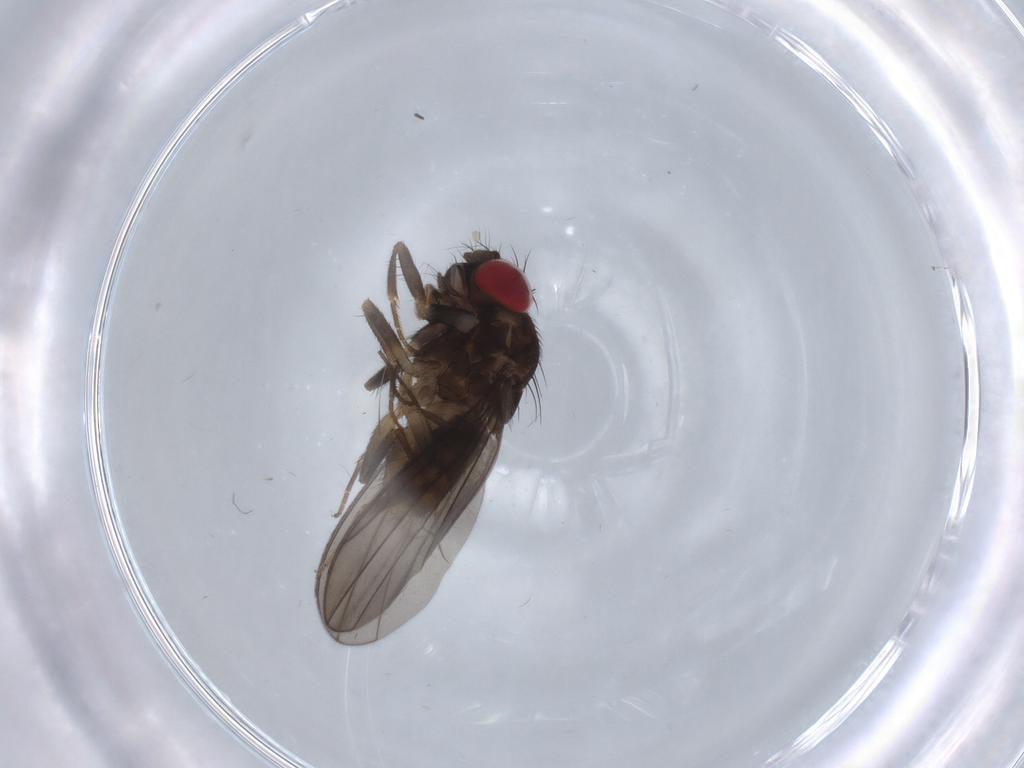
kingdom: Animalia
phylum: Arthropoda
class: Insecta
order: Diptera
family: Drosophilidae
